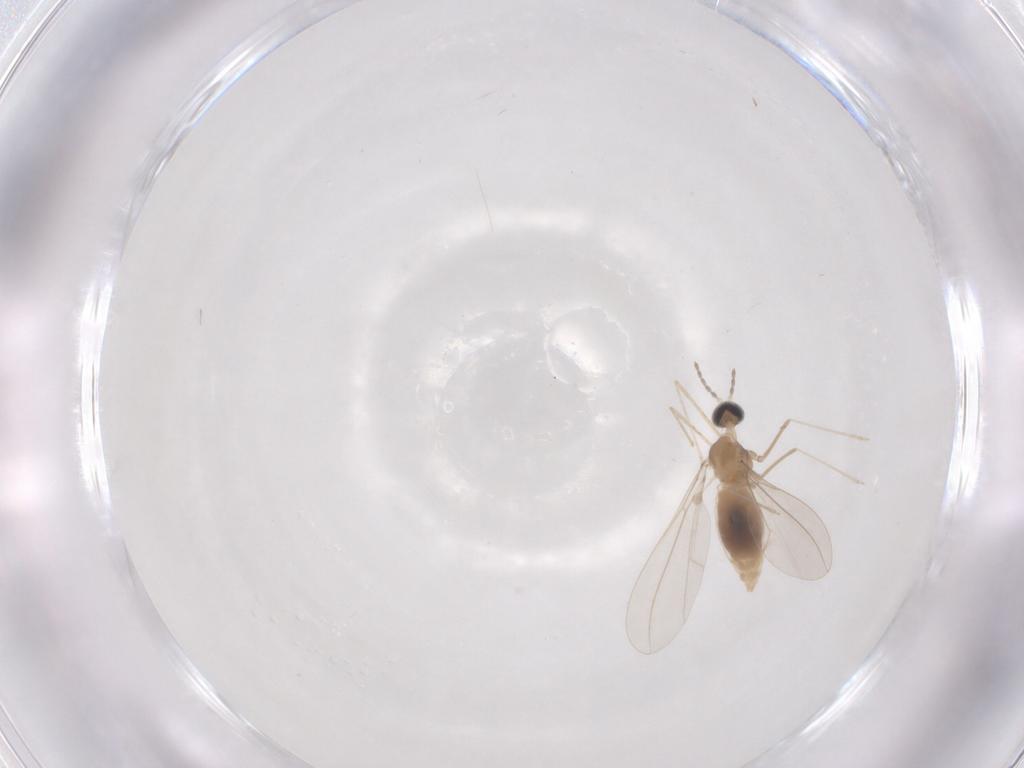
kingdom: Animalia
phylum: Arthropoda
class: Insecta
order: Diptera
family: Cecidomyiidae
